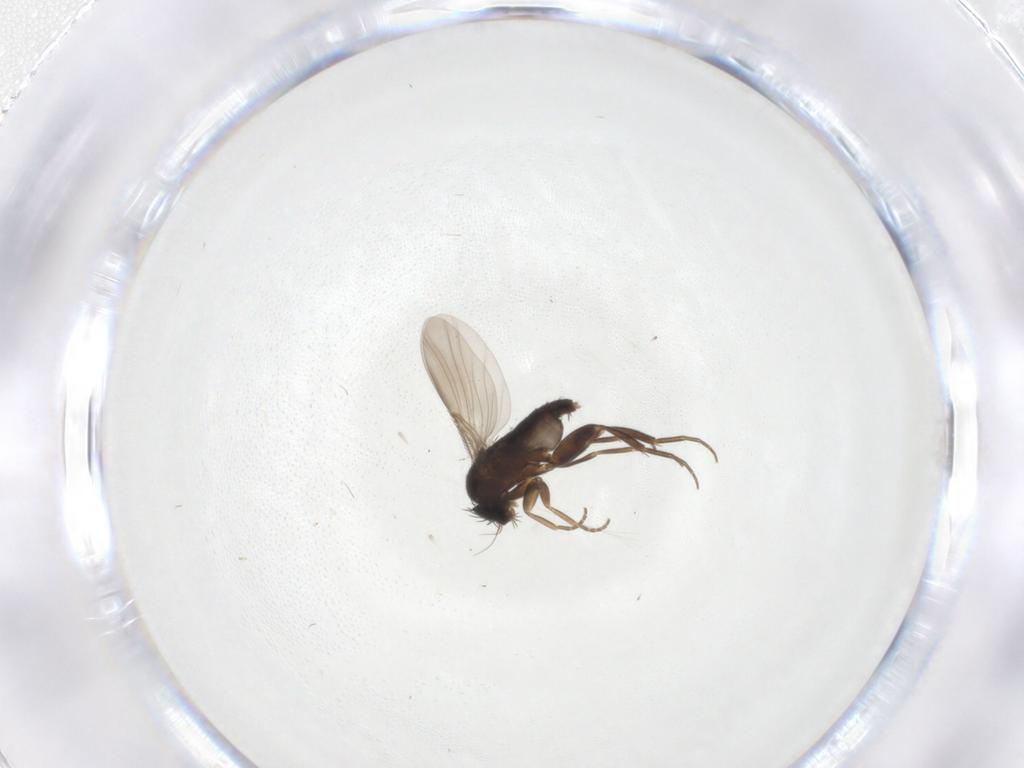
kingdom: Animalia
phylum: Arthropoda
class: Insecta
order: Diptera
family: Phoridae
